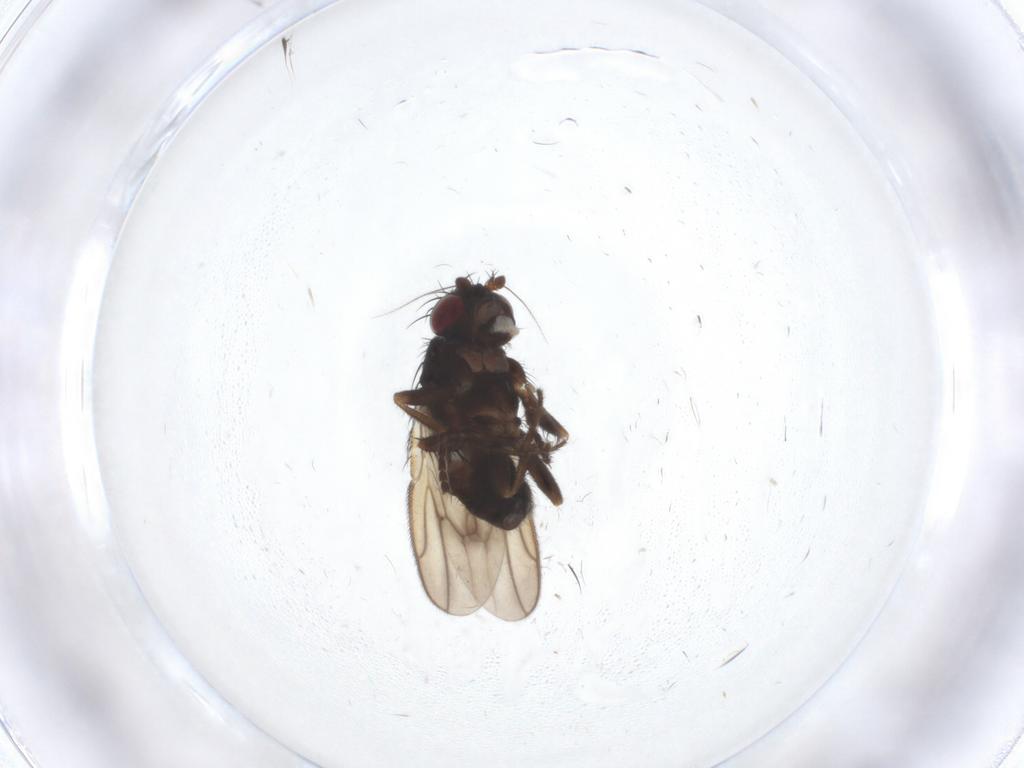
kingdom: Animalia
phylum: Arthropoda
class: Insecta
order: Diptera
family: Sphaeroceridae
